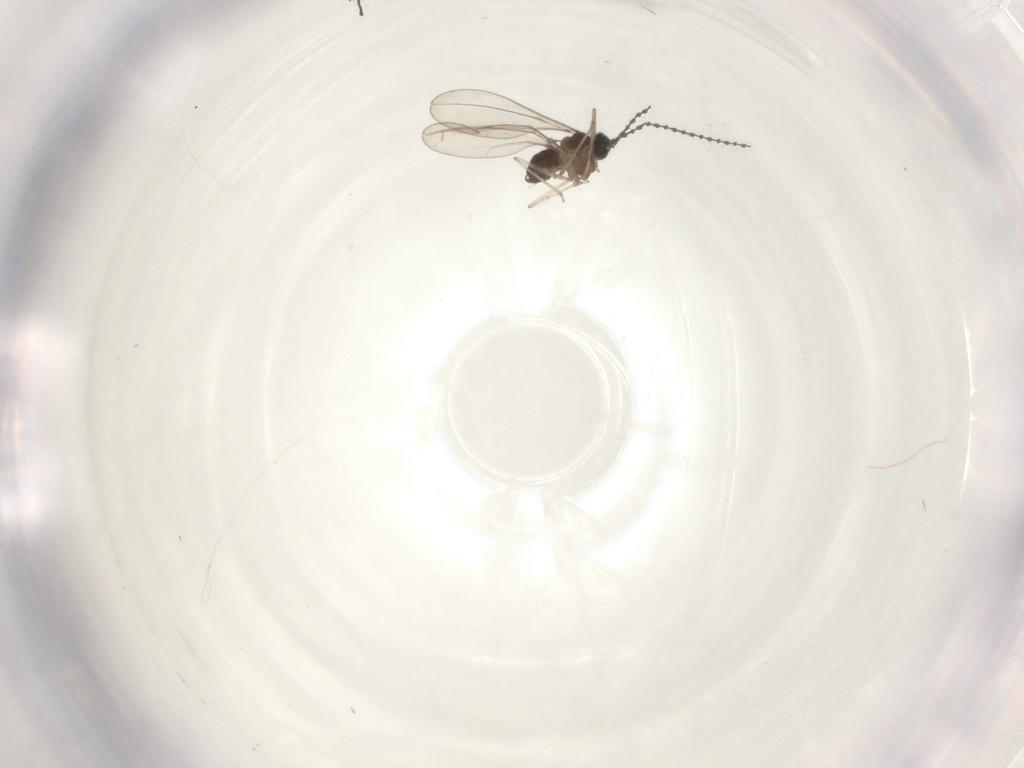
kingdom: Animalia
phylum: Arthropoda
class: Insecta
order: Diptera
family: Cecidomyiidae
